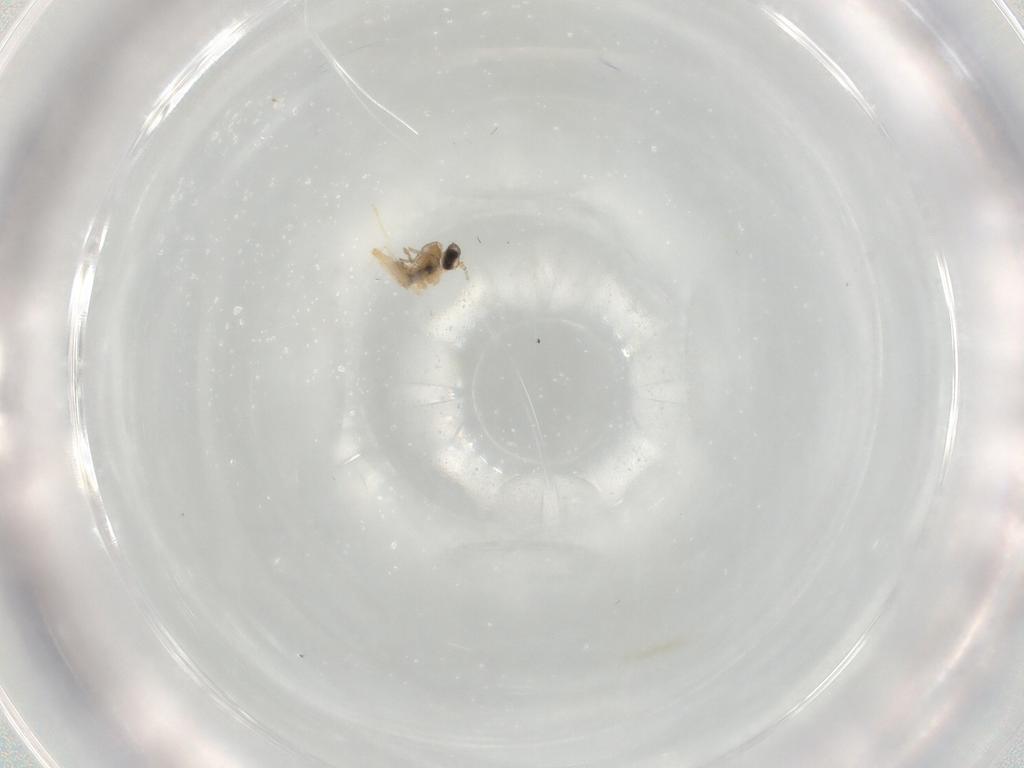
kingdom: Animalia
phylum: Arthropoda
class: Insecta
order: Diptera
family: Cecidomyiidae
